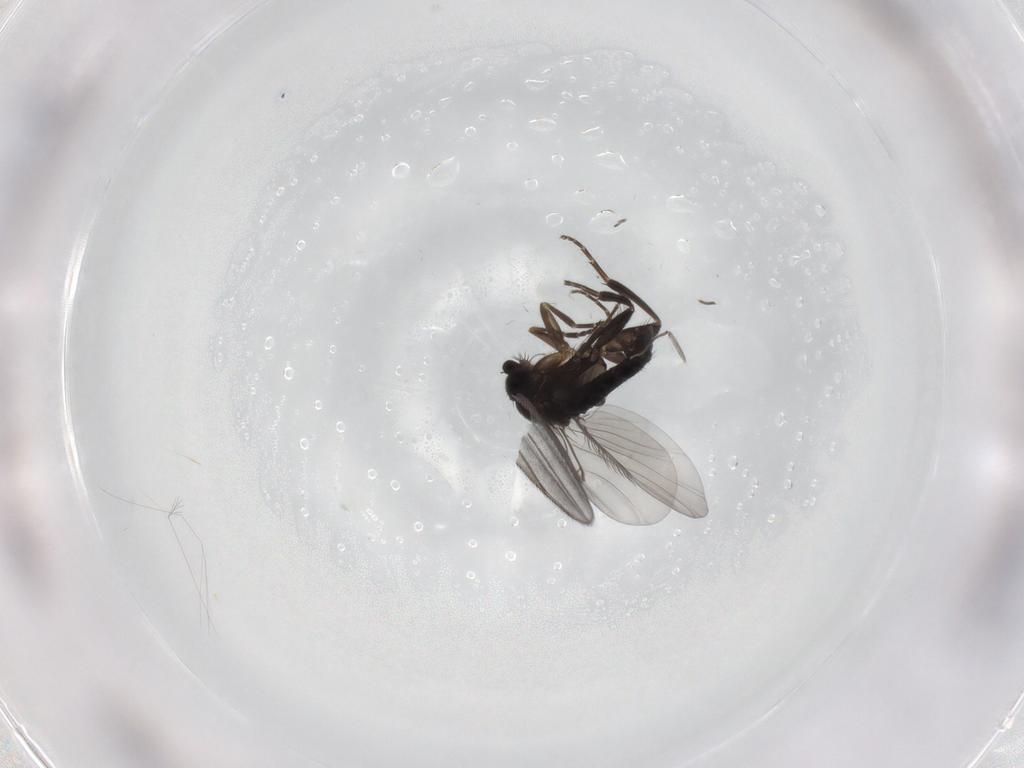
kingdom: Animalia
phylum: Arthropoda
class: Insecta
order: Diptera
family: Phoridae
